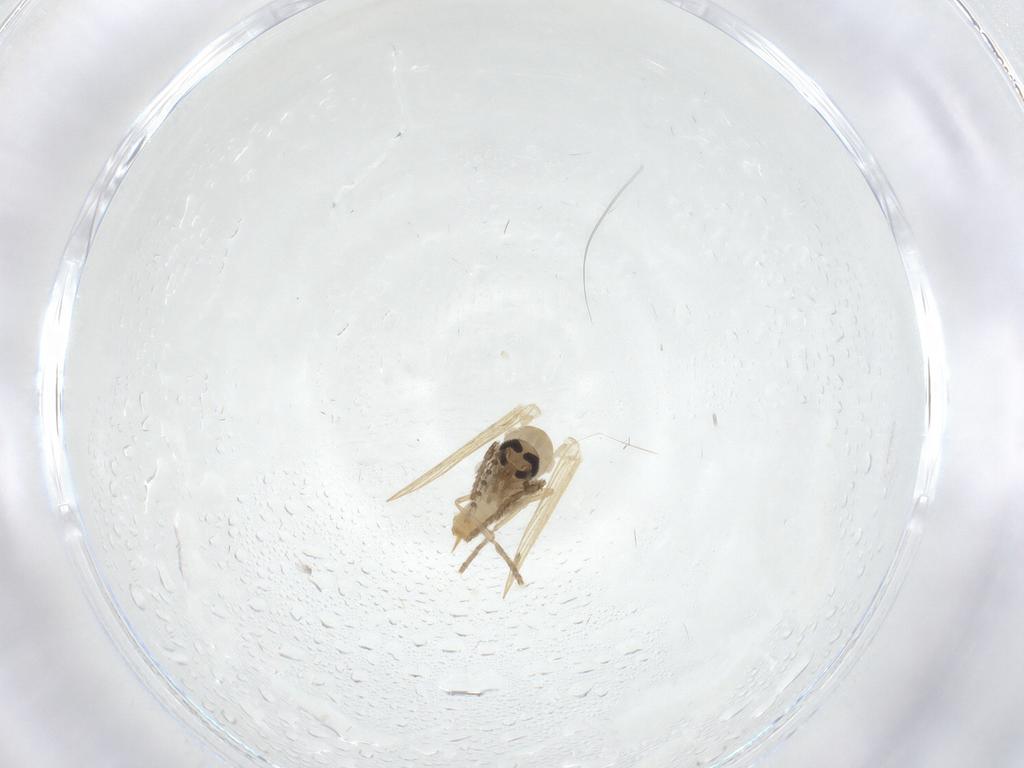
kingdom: Animalia
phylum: Arthropoda
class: Insecta
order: Diptera
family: Psychodidae
